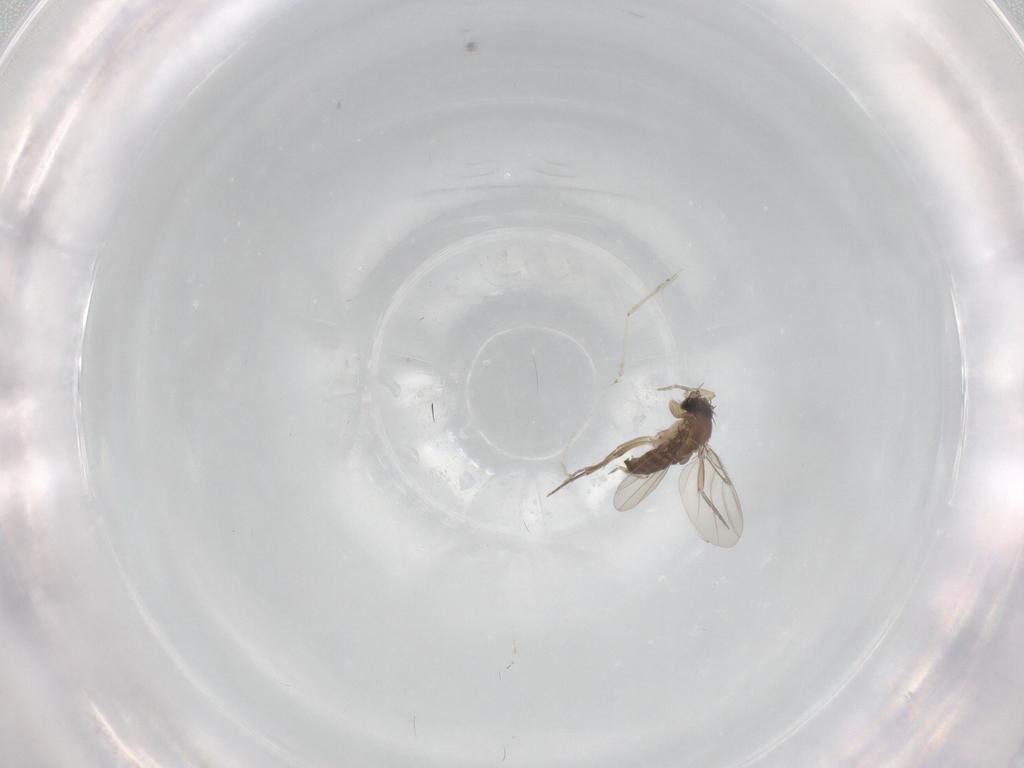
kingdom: Animalia
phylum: Arthropoda
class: Insecta
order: Diptera
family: Cecidomyiidae
